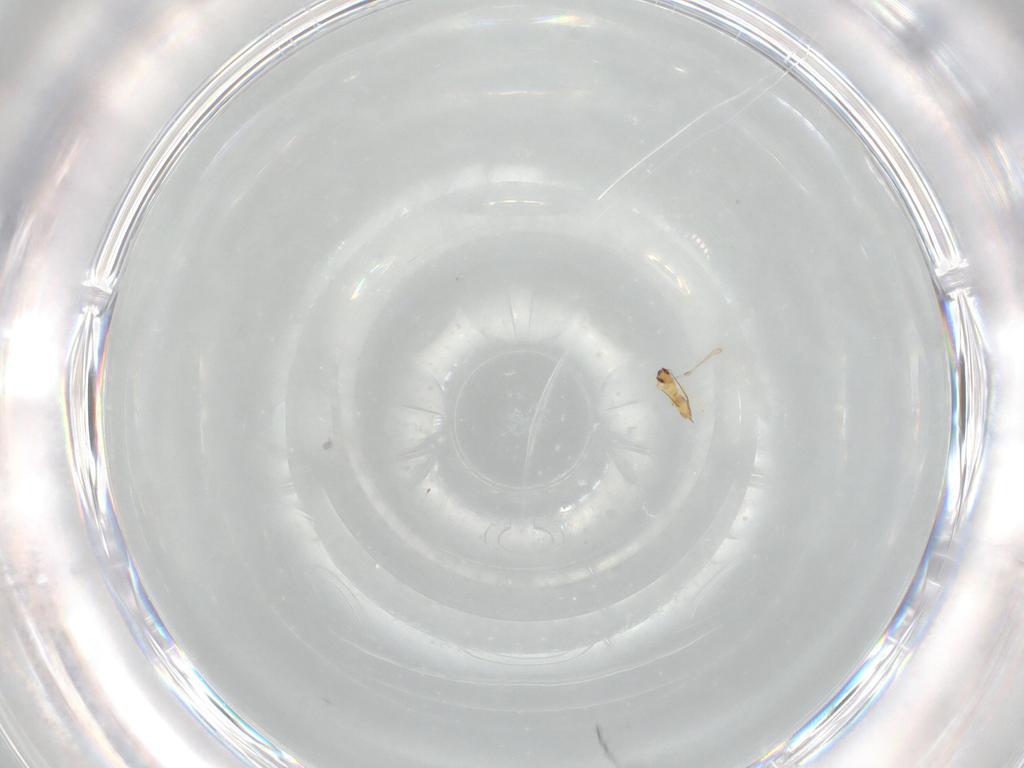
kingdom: Animalia
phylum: Arthropoda
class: Insecta
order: Hymenoptera
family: Mymaridae
